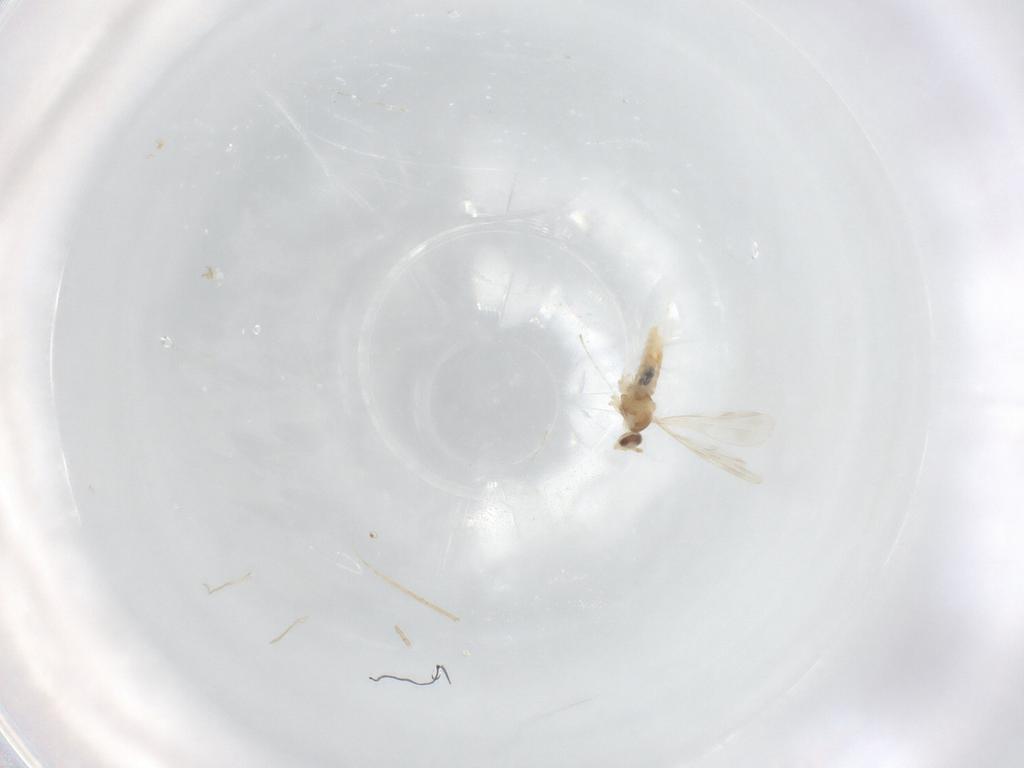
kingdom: Animalia
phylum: Arthropoda
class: Insecta
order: Diptera
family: Cecidomyiidae
